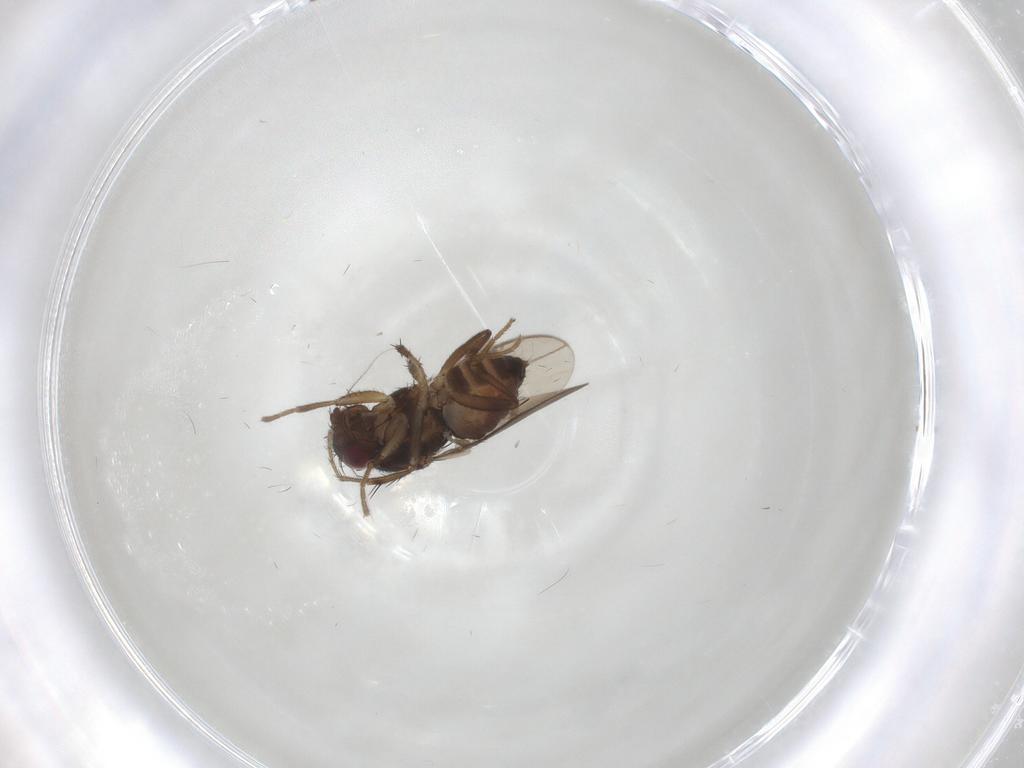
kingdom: Animalia
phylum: Arthropoda
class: Insecta
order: Diptera
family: Sphaeroceridae
